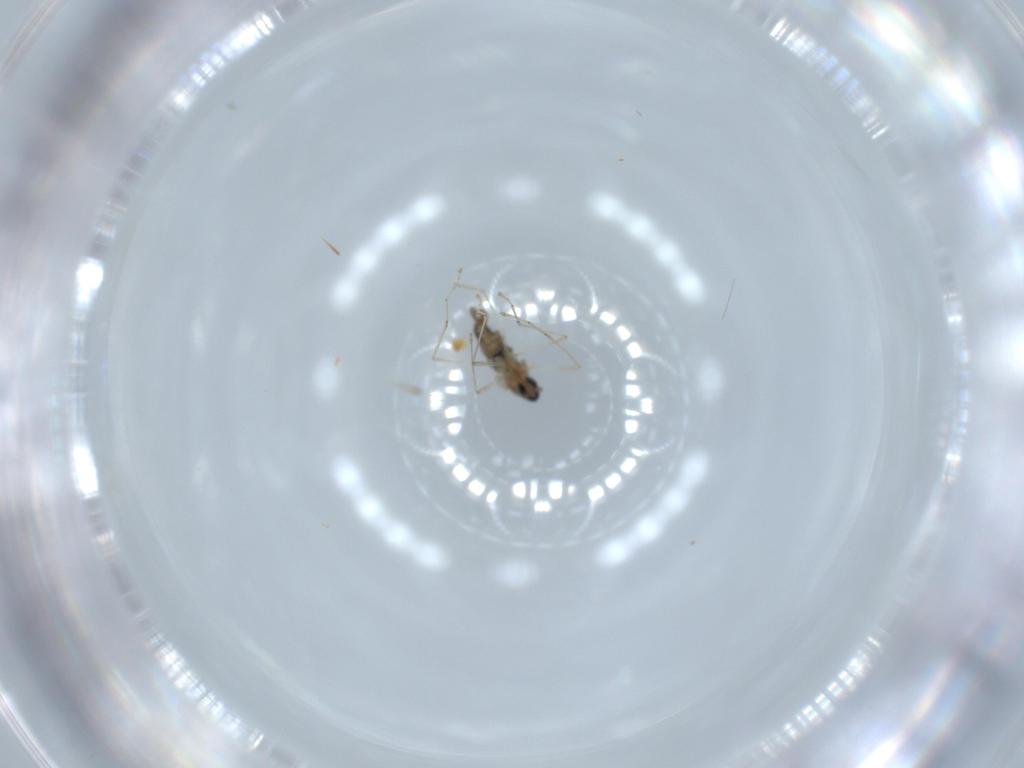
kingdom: Animalia
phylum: Arthropoda
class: Insecta
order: Diptera
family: Cecidomyiidae
